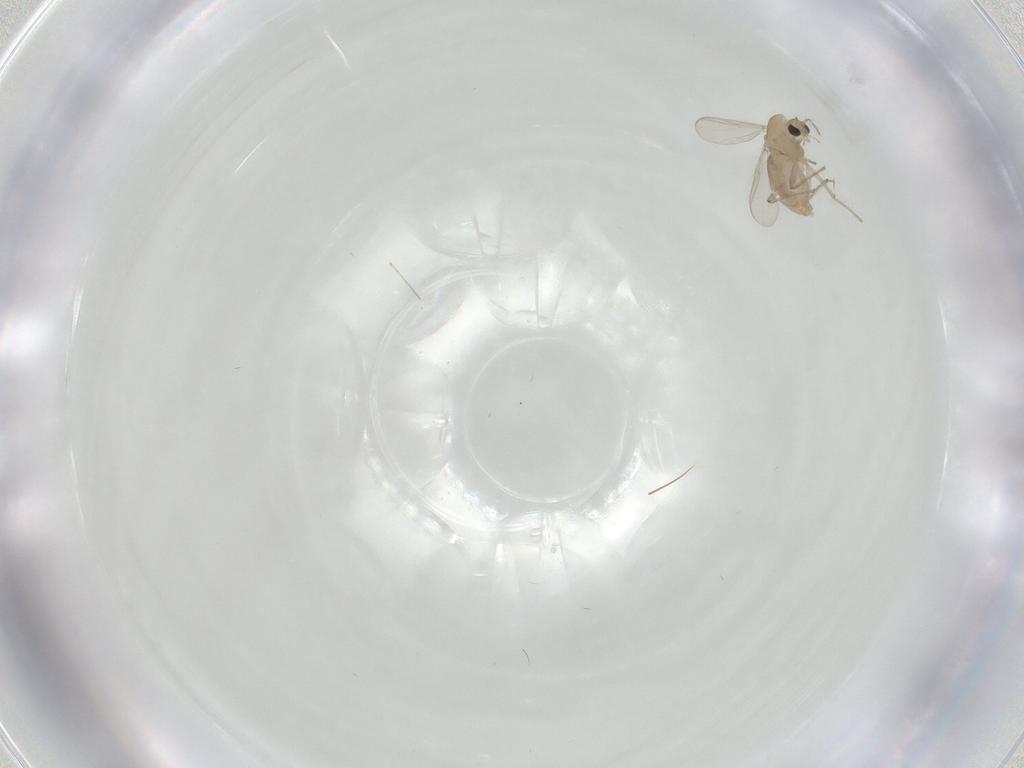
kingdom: Animalia
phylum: Arthropoda
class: Insecta
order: Diptera
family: Chironomidae
